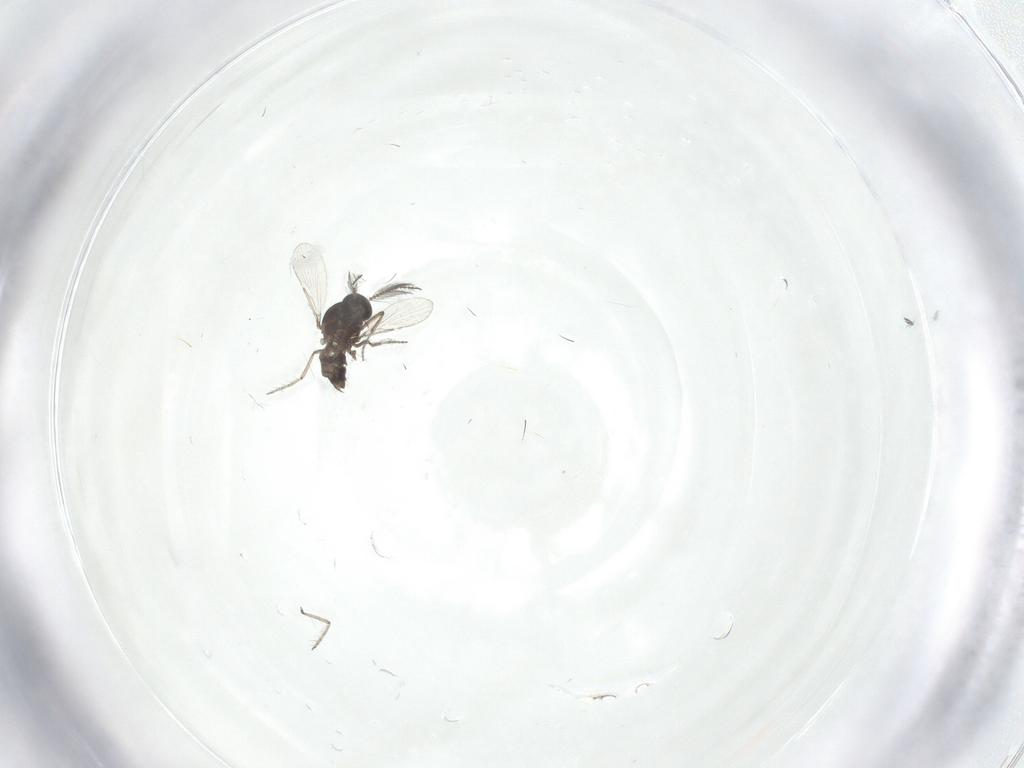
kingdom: Animalia
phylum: Arthropoda
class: Insecta
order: Diptera
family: Ceratopogonidae
